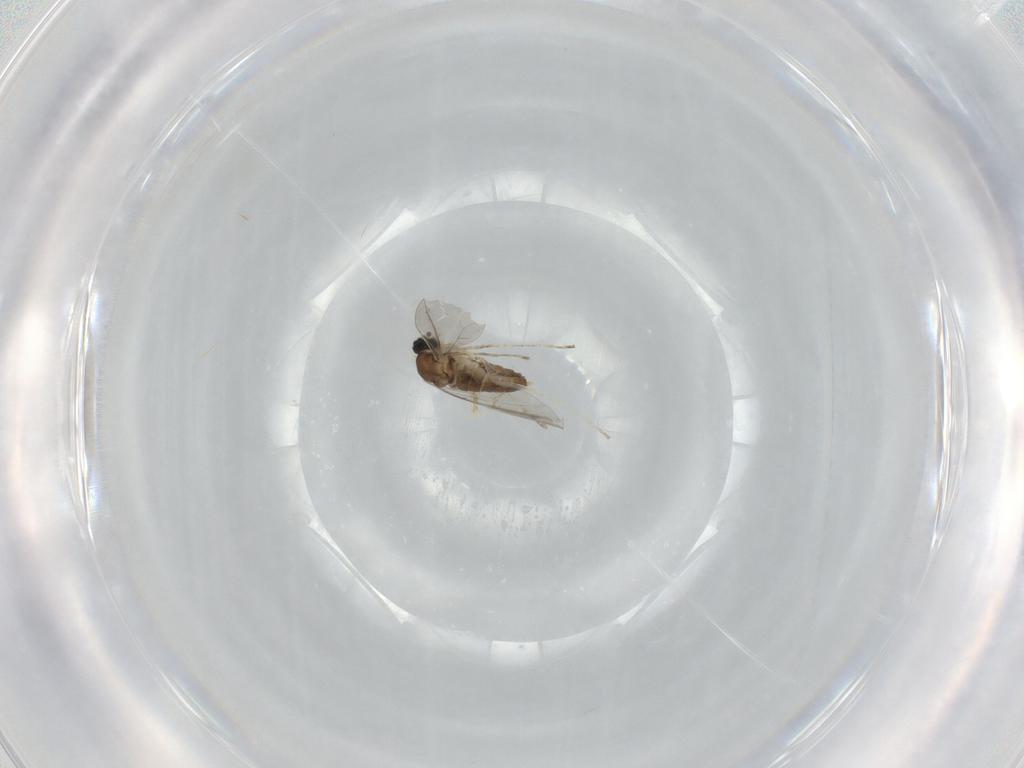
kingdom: Animalia
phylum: Arthropoda
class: Insecta
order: Diptera
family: Cecidomyiidae
